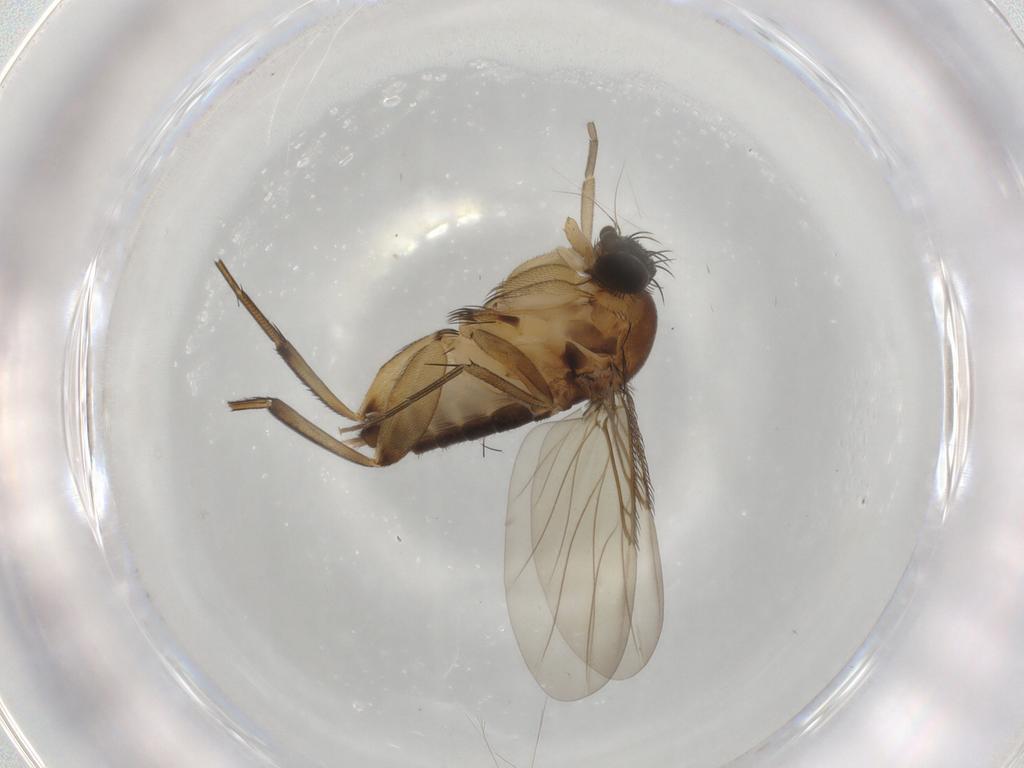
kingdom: Animalia
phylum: Arthropoda
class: Insecta
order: Diptera
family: Phoridae
